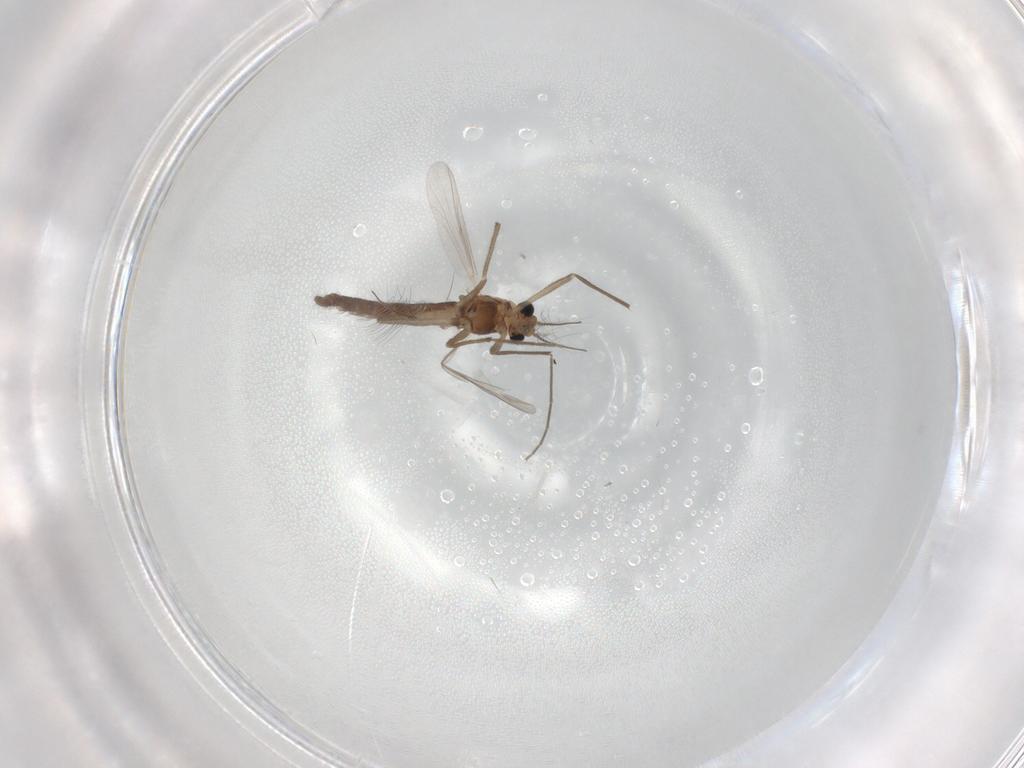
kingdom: Animalia
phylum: Arthropoda
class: Insecta
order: Diptera
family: Chironomidae
